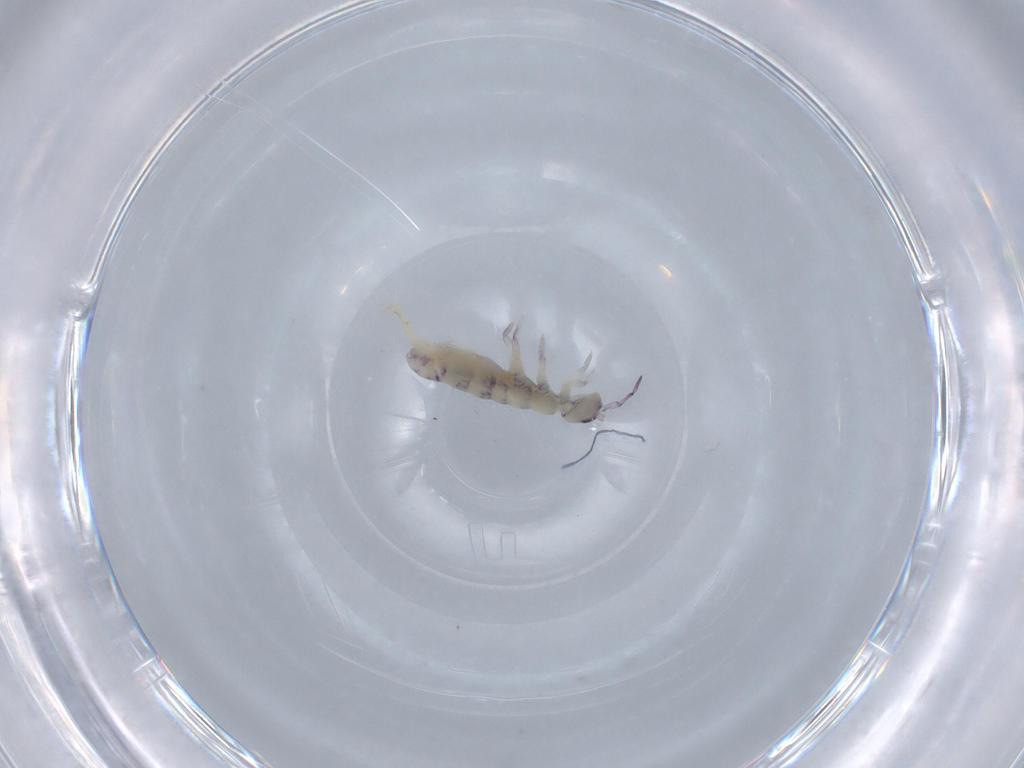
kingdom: Animalia
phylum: Arthropoda
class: Collembola
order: Entomobryomorpha
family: Isotomidae
